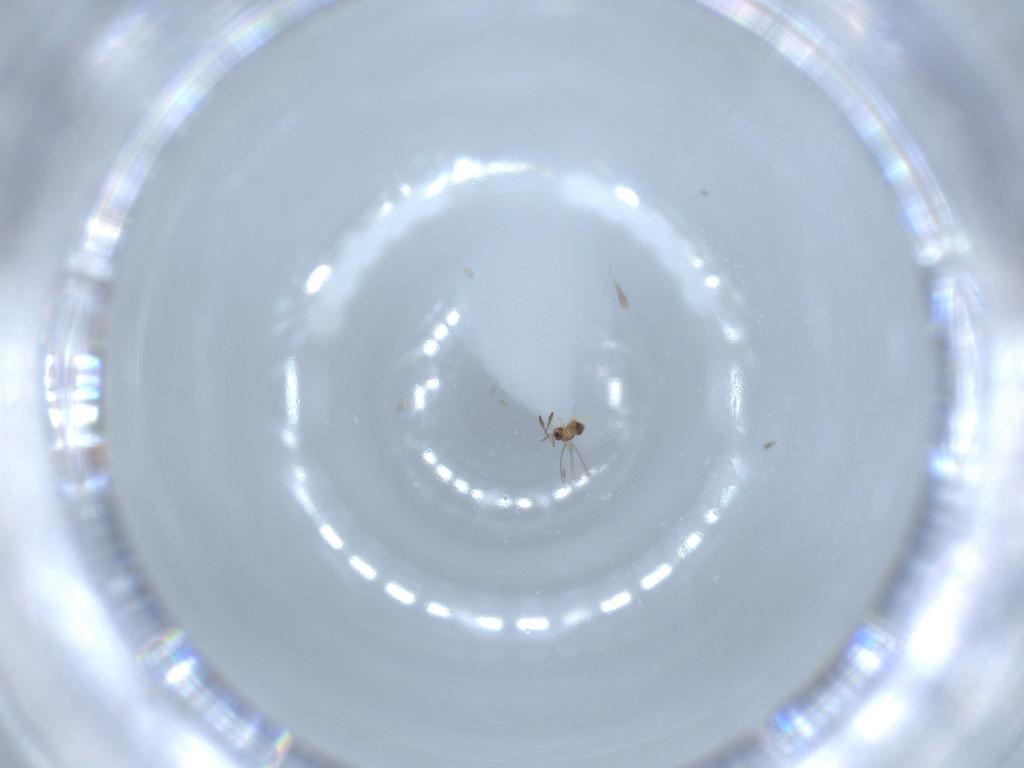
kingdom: Animalia
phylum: Arthropoda
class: Insecta
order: Hymenoptera
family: Mymaridae
